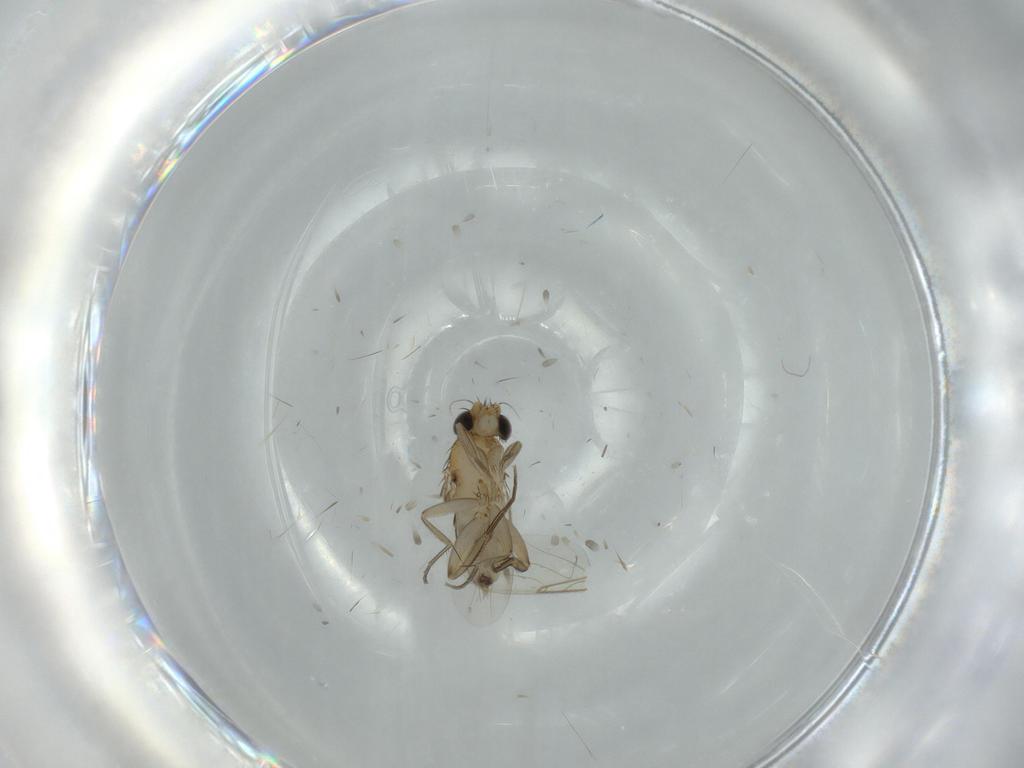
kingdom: Animalia
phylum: Arthropoda
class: Insecta
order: Diptera
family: Phoridae
